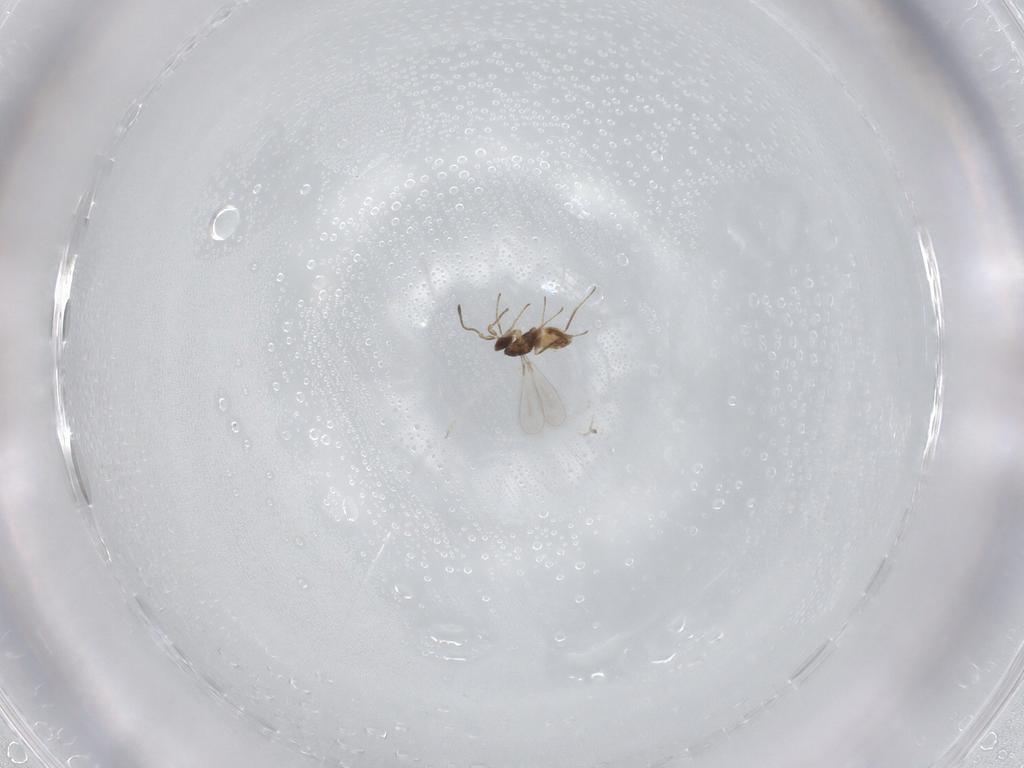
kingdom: Animalia
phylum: Arthropoda
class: Insecta
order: Hymenoptera
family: Mymaridae
